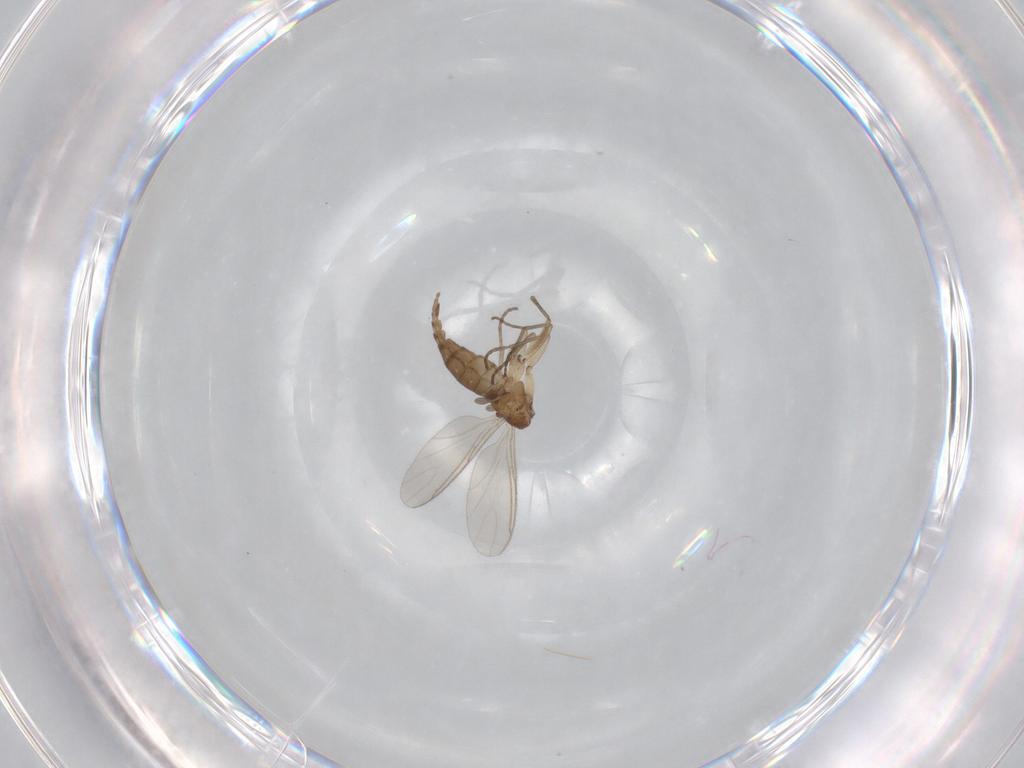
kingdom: Animalia
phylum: Arthropoda
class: Insecta
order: Diptera
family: Sciaridae
